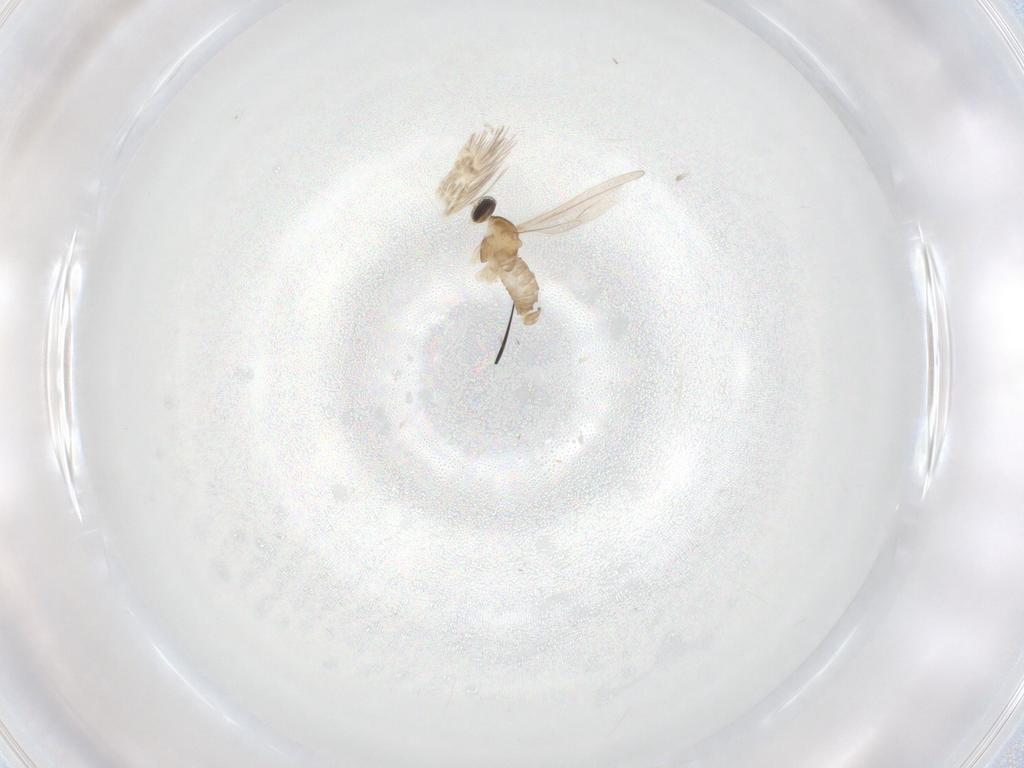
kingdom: Animalia
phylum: Arthropoda
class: Insecta
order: Diptera
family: Cecidomyiidae
